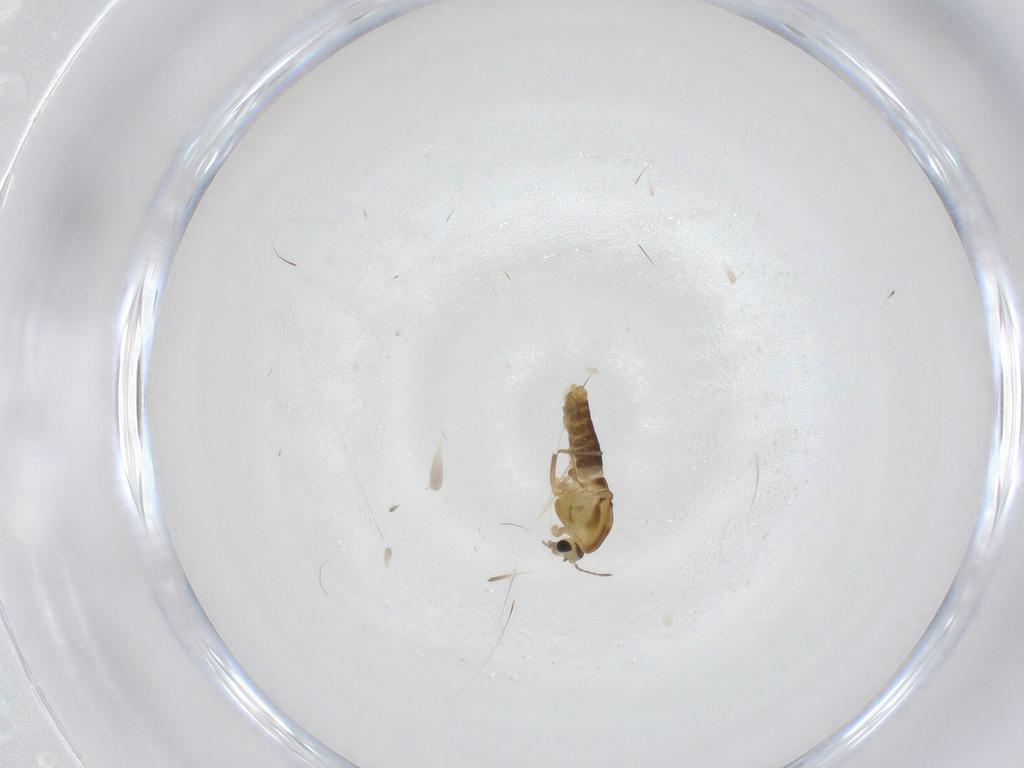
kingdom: Animalia
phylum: Arthropoda
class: Insecta
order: Diptera
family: Chironomidae
